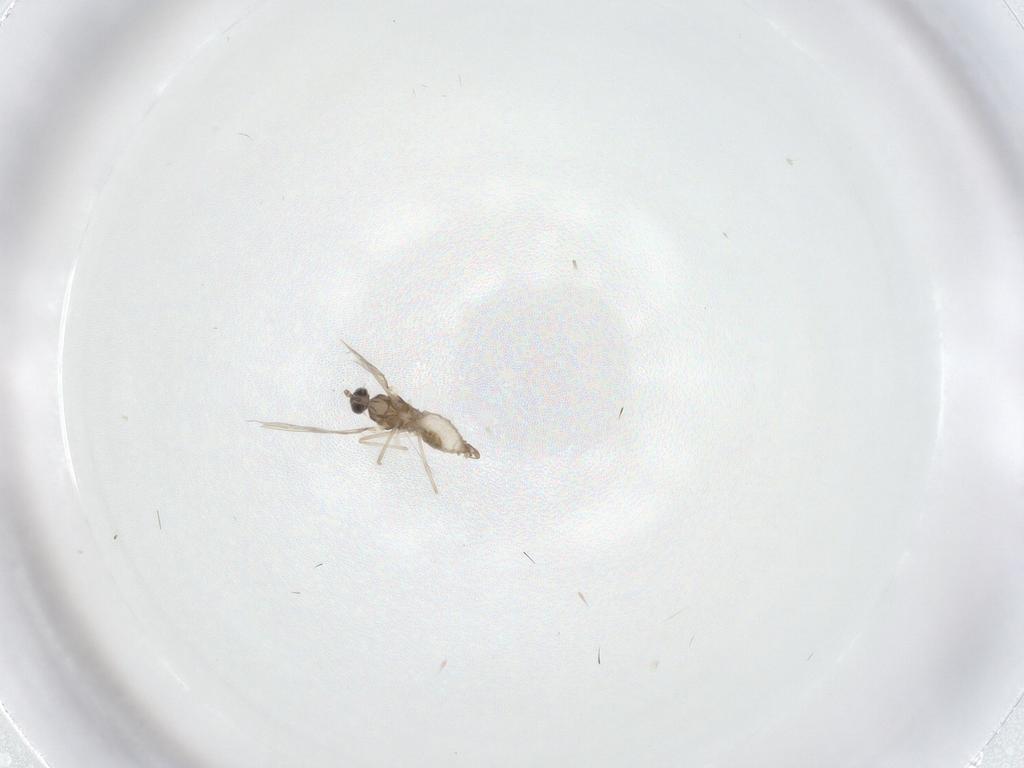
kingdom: Animalia
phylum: Arthropoda
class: Insecta
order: Diptera
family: Cecidomyiidae
